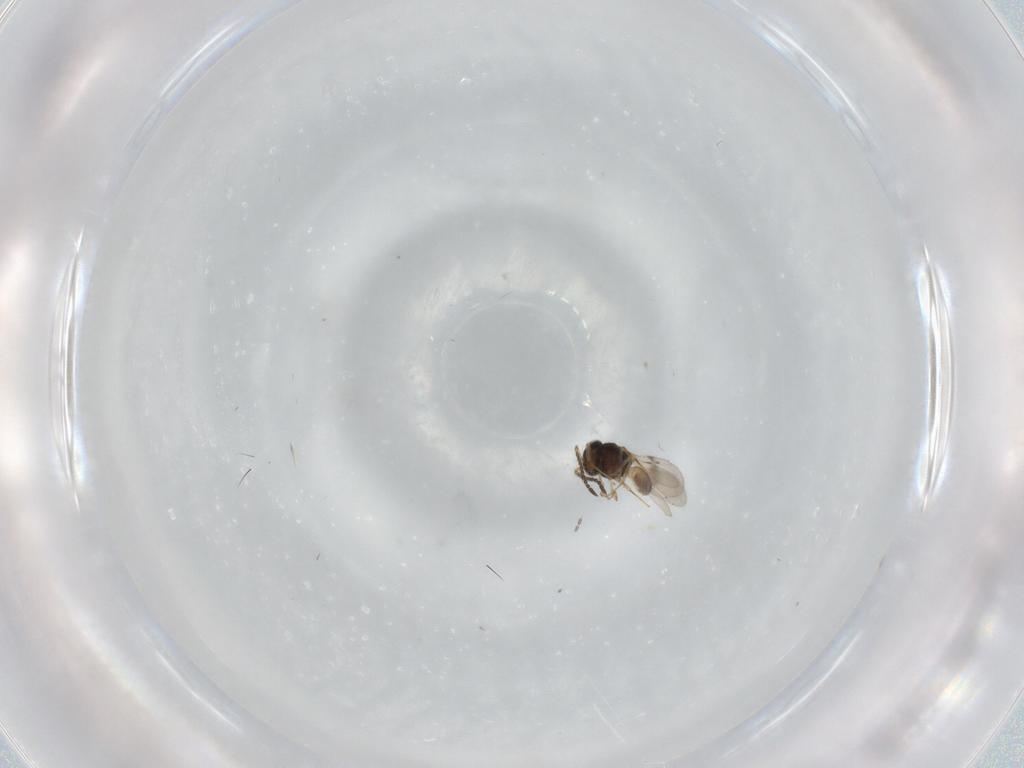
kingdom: Animalia
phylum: Arthropoda
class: Insecta
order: Hymenoptera
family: Scelionidae
